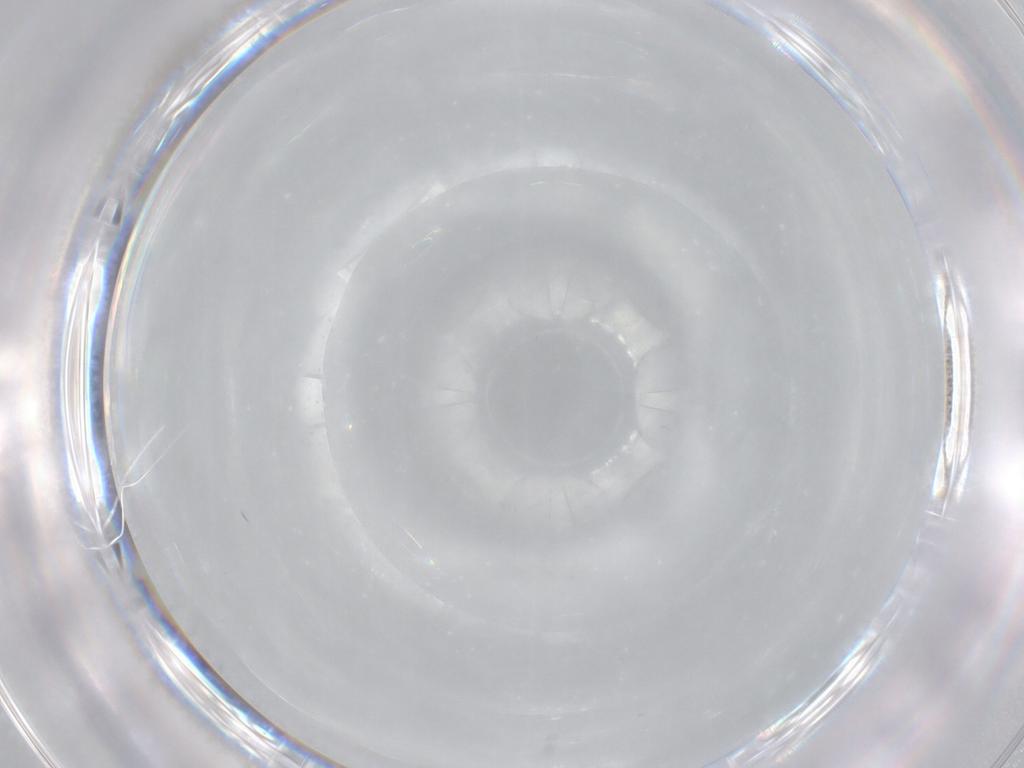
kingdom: Animalia
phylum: Arthropoda
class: Insecta
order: Diptera
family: Cecidomyiidae
